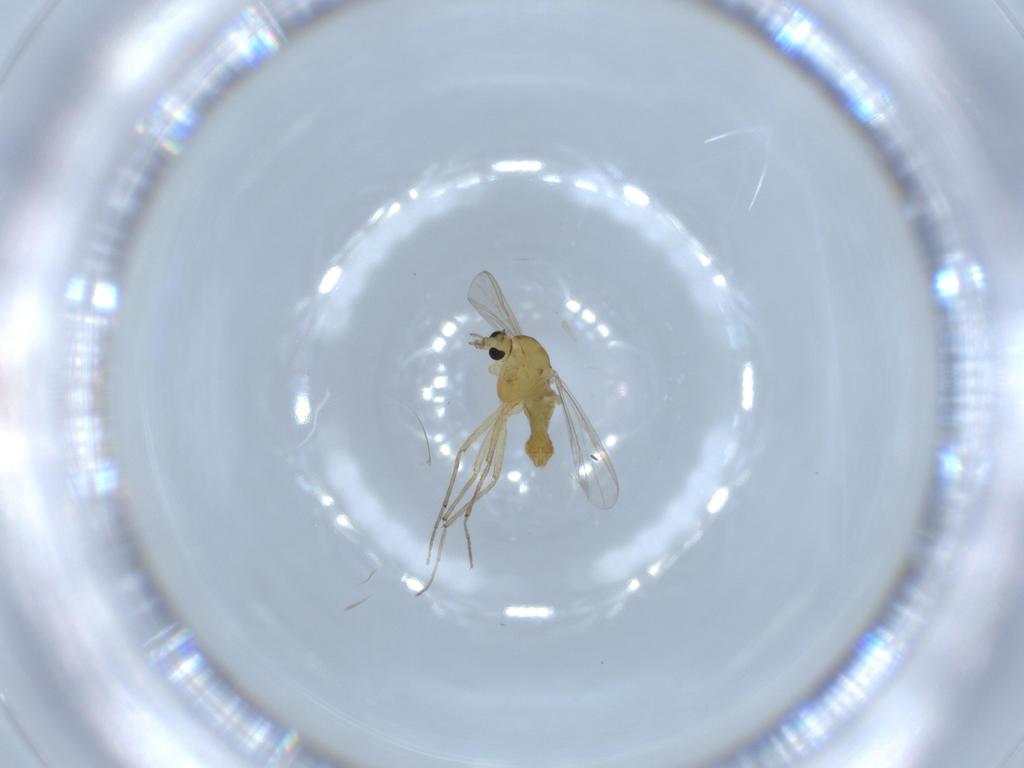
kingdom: Animalia
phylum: Arthropoda
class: Insecta
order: Diptera
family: Chironomidae
